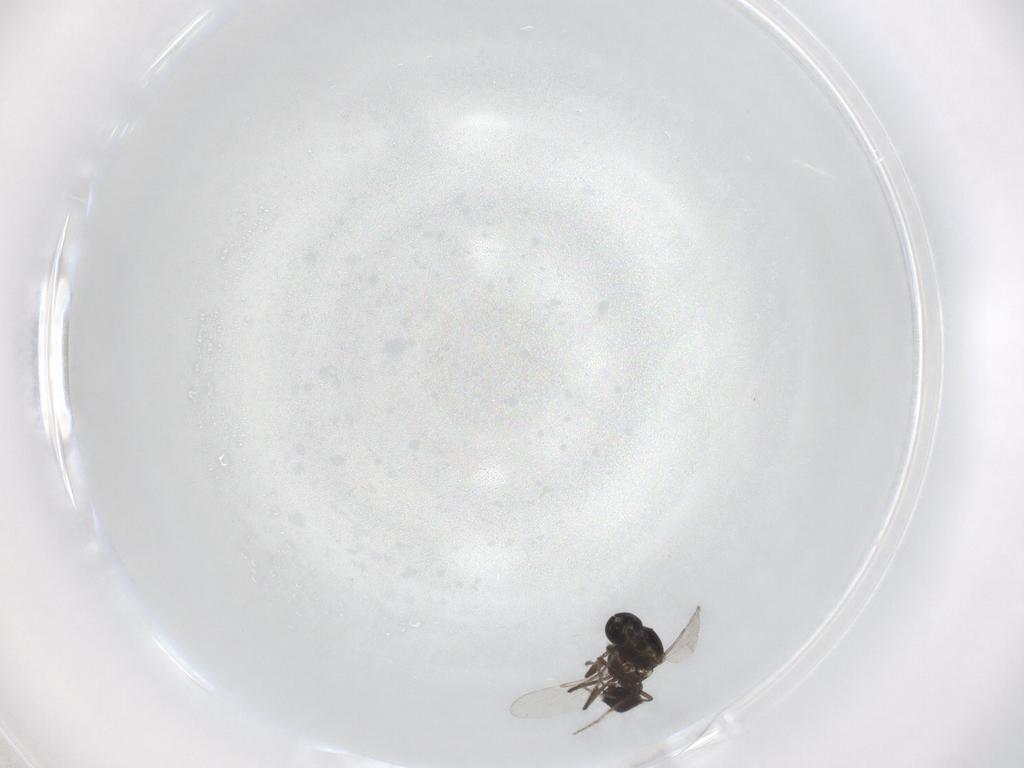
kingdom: Animalia
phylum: Arthropoda
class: Insecta
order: Diptera
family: Ceratopogonidae
